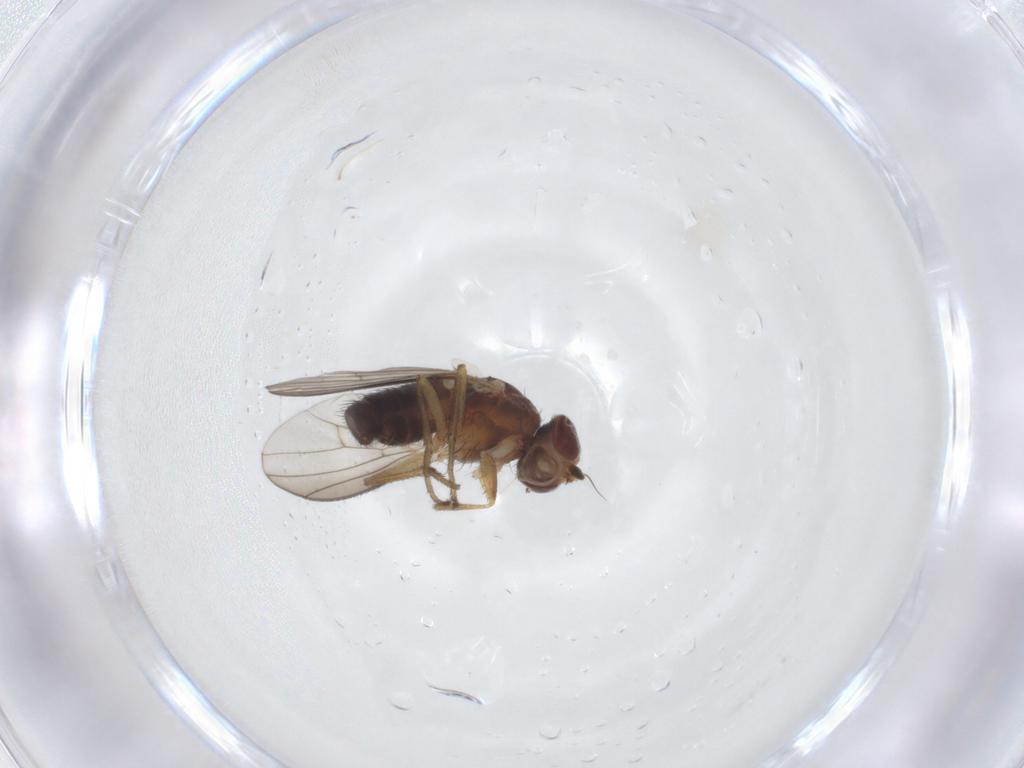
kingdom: Animalia
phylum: Arthropoda
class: Insecta
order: Diptera
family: Heleomyzidae
